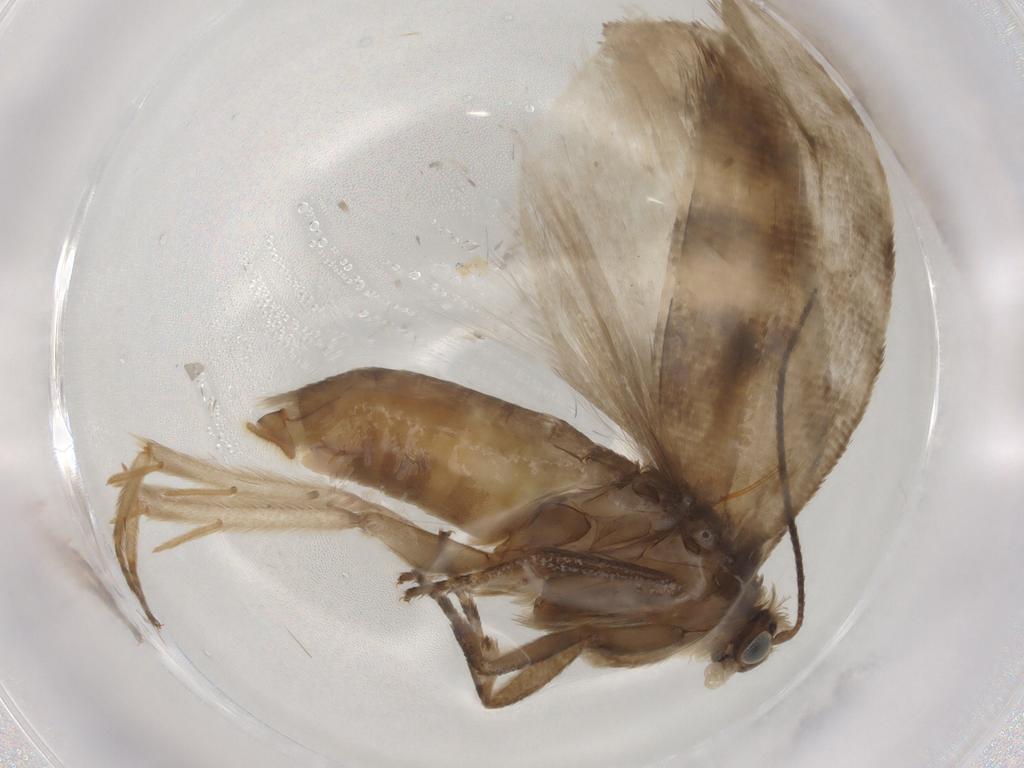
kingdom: Animalia
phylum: Arthropoda
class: Insecta
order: Lepidoptera
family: Tortricidae
